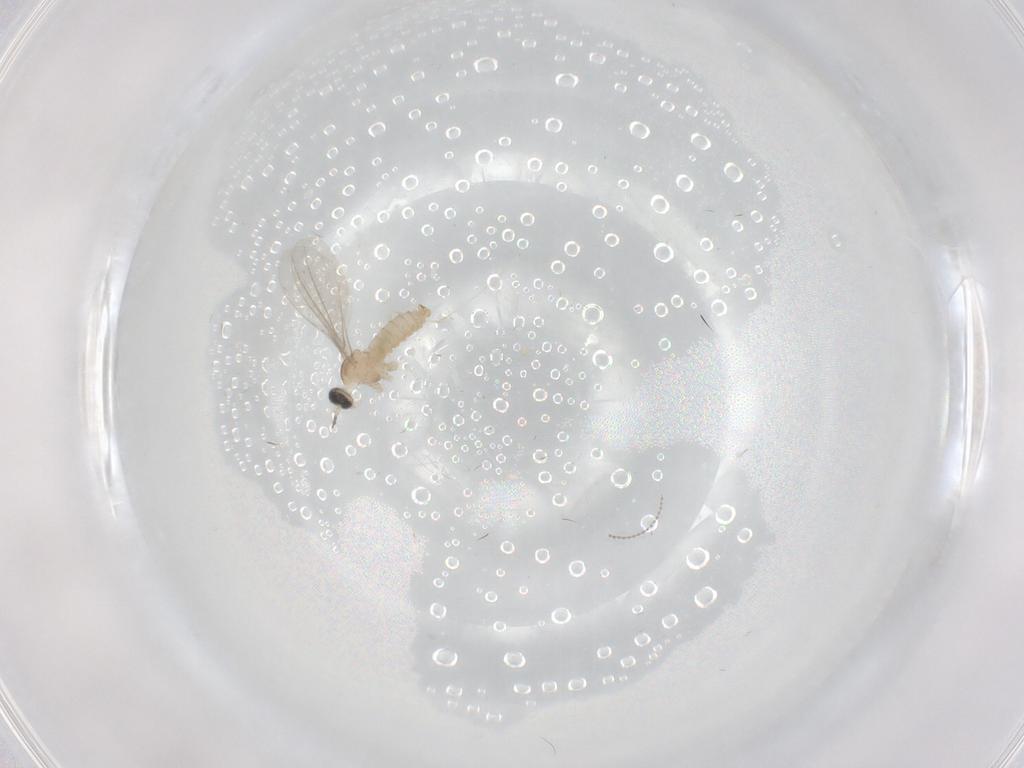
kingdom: Animalia
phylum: Arthropoda
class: Insecta
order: Diptera
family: Cecidomyiidae
